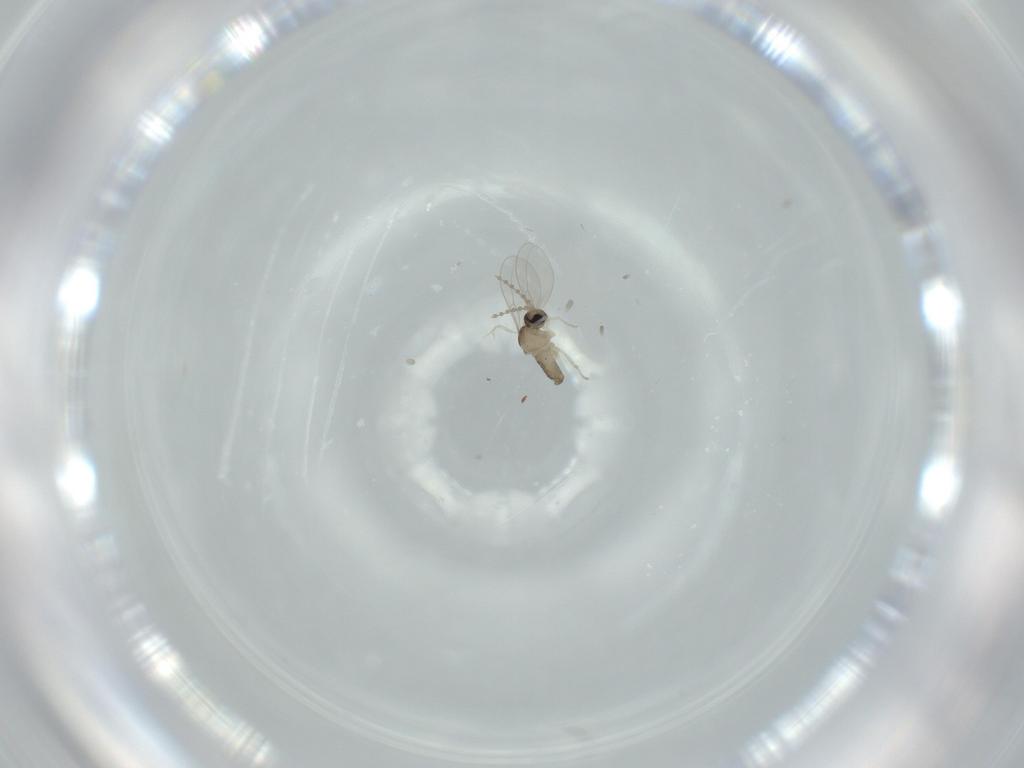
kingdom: Animalia
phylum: Arthropoda
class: Insecta
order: Diptera
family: Cecidomyiidae
